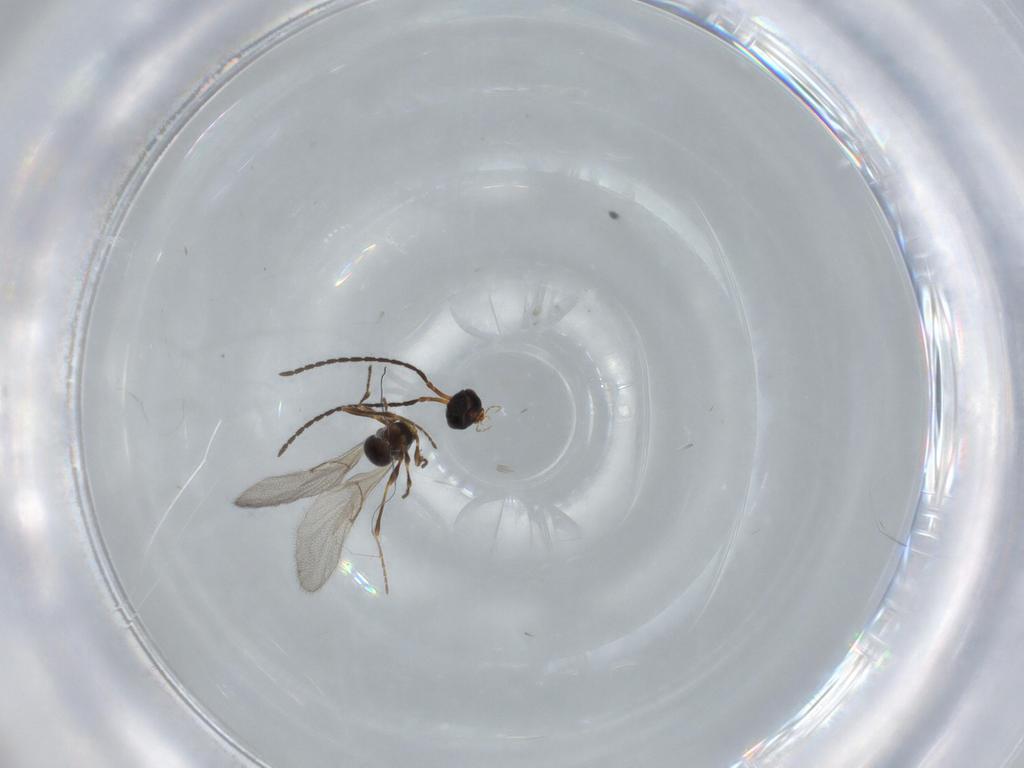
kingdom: Animalia
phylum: Arthropoda
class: Insecta
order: Hymenoptera
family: Encyrtidae
